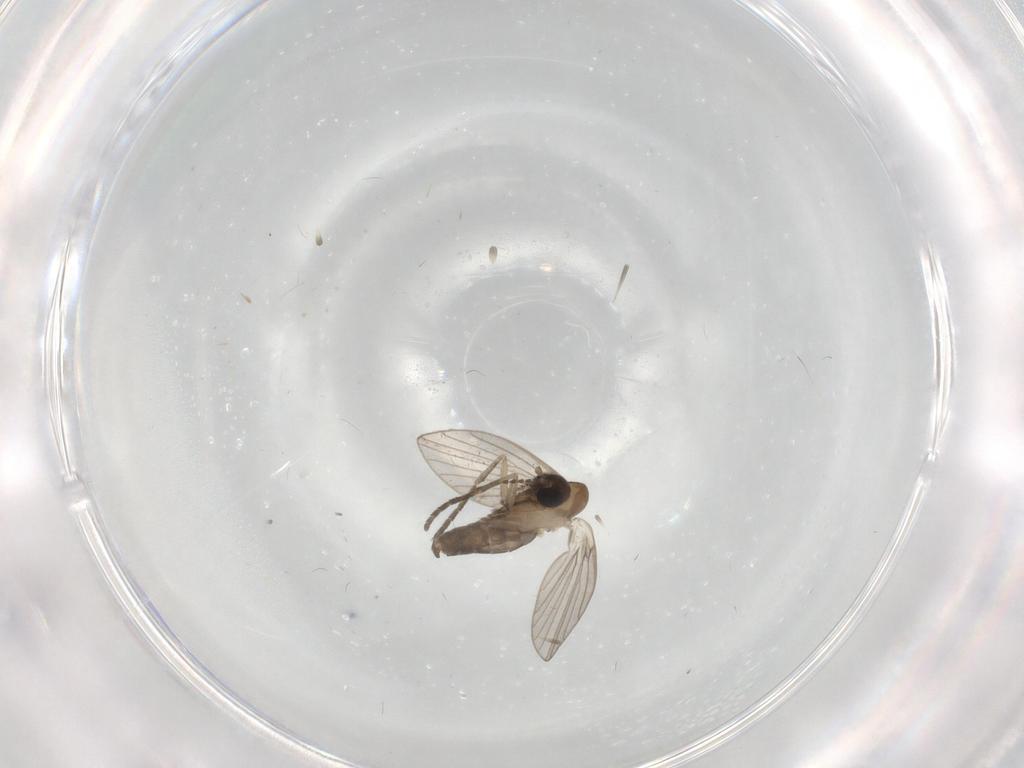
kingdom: Animalia
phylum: Arthropoda
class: Insecta
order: Diptera
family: Psychodidae
